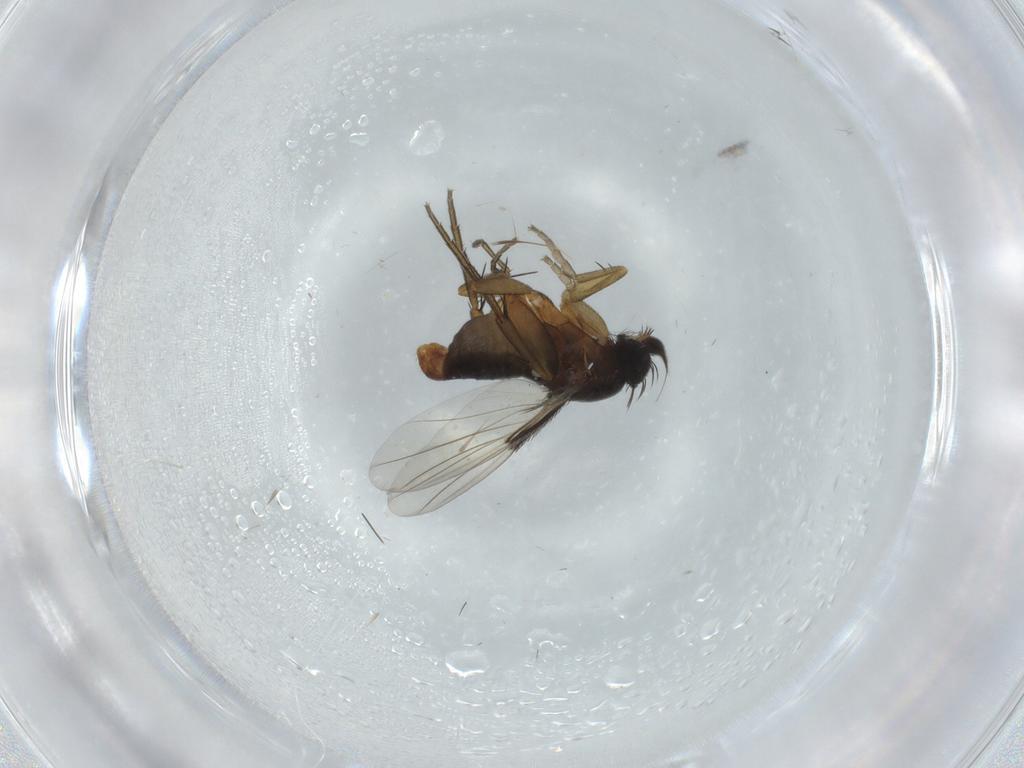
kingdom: Animalia
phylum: Arthropoda
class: Insecta
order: Diptera
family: Phoridae
